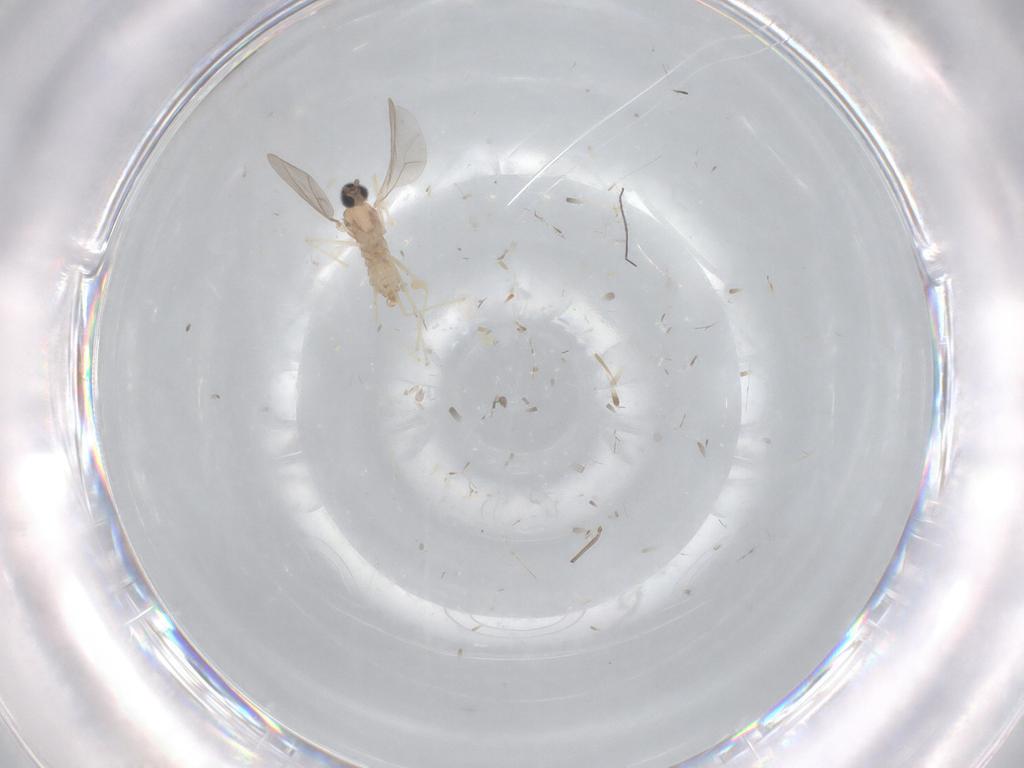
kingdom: Animalia
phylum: Arthropoda
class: Insecta
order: Diptera
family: Chironomidae
